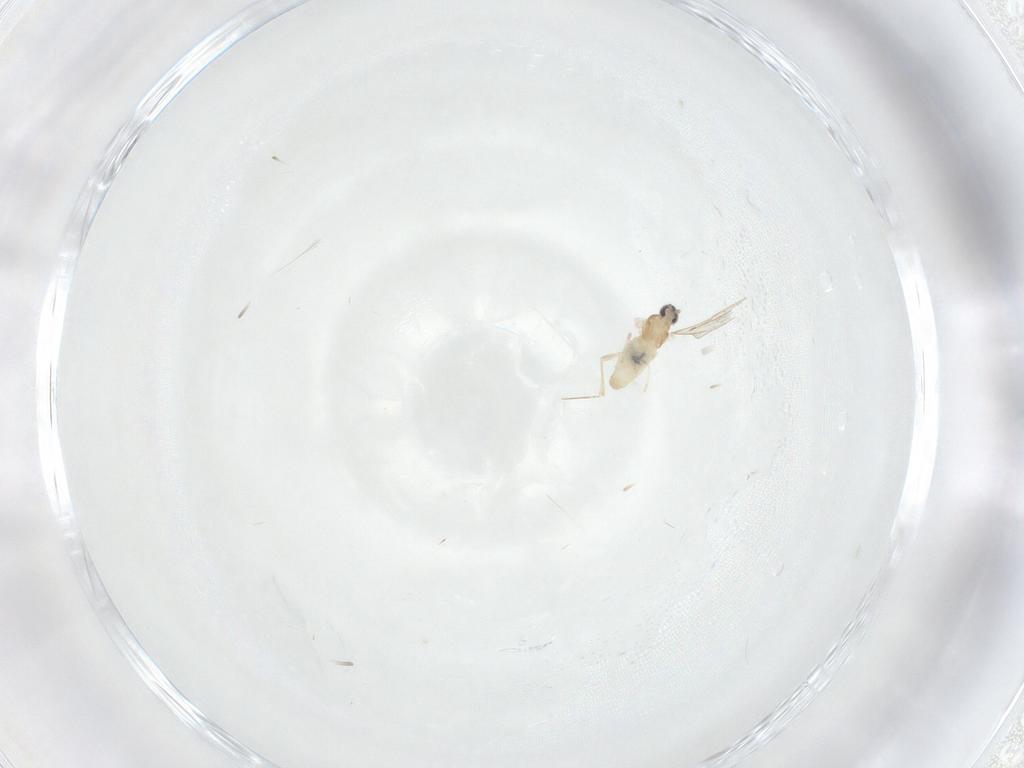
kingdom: Animalia
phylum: Arthropoda
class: Insecta
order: Diptera
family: Cecidomyiidae
